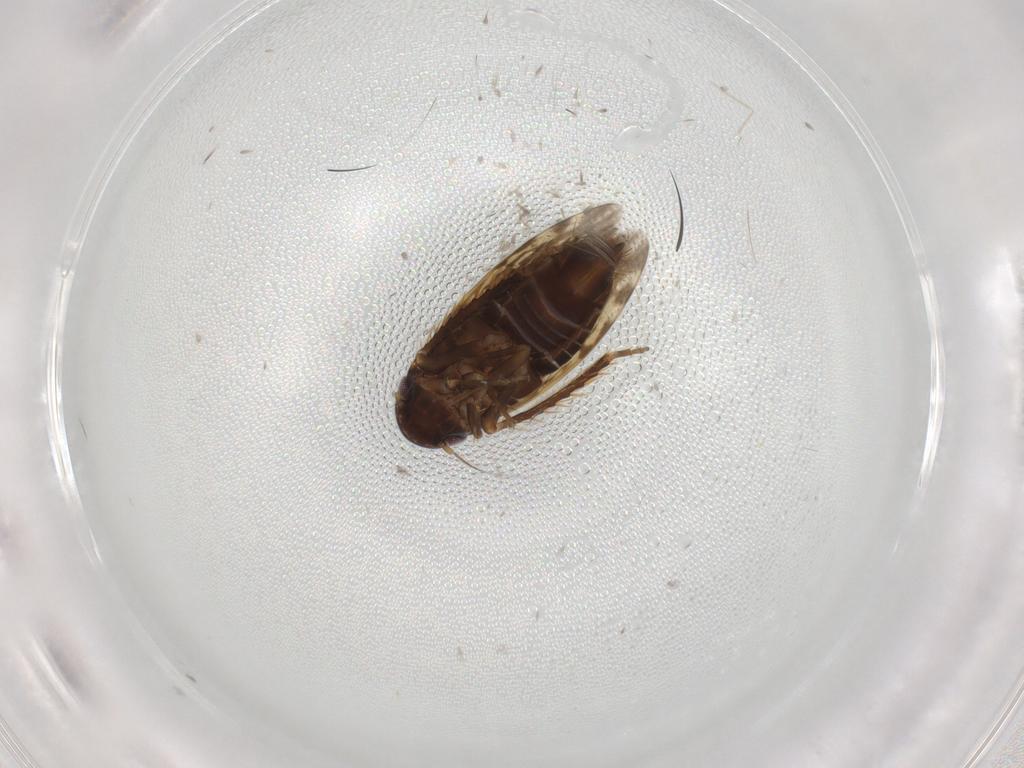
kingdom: Animalia
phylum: Arthropoda
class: Insecta
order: Hemiptera
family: Cicadellidae
